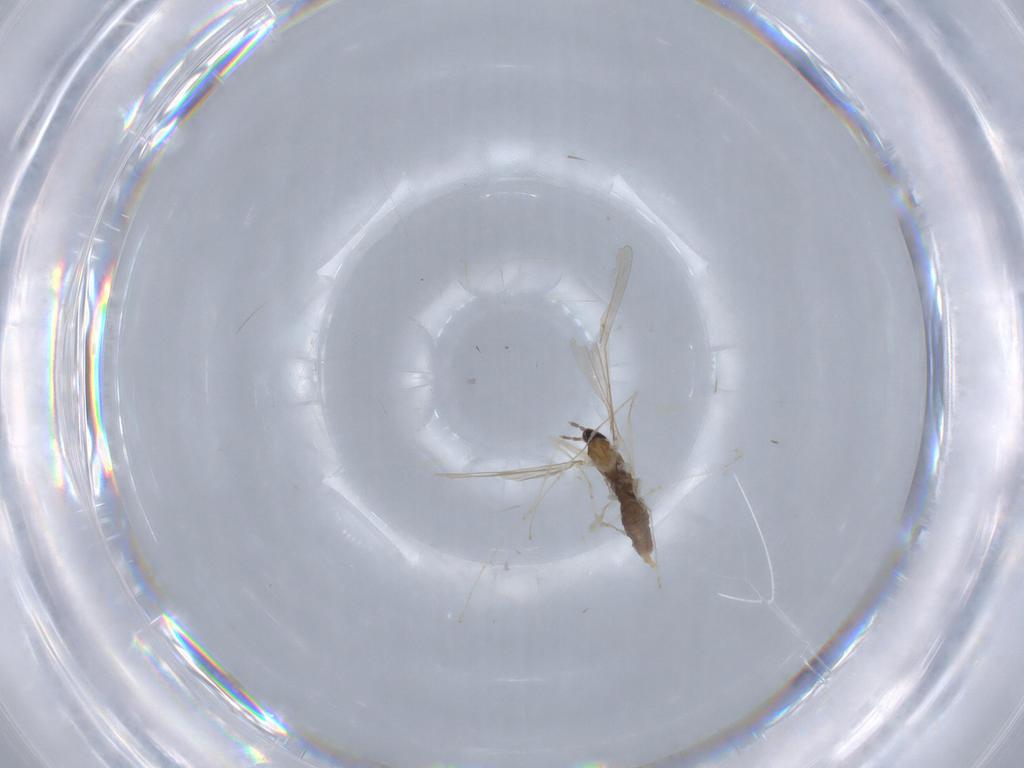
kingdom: Animalia
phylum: Arthropoda
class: Insecta
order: Diptera
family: Cecidomyiidae
